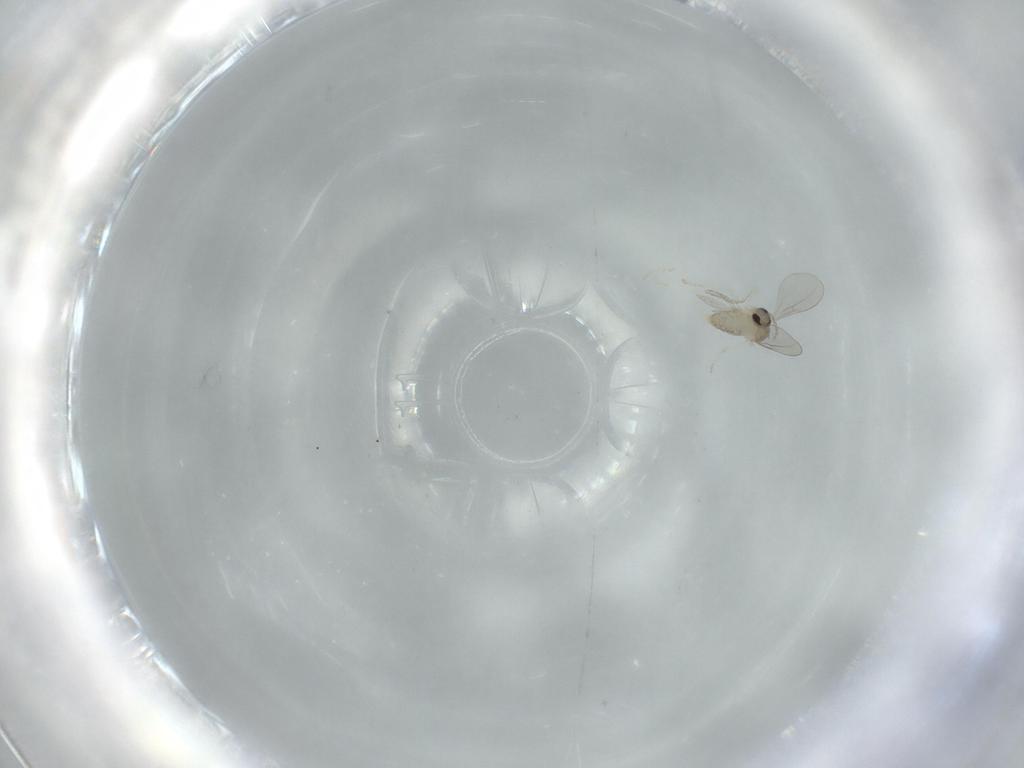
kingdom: Animalia
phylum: Arthropoda
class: Insecta
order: Diptera
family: Cecidomyiidae
